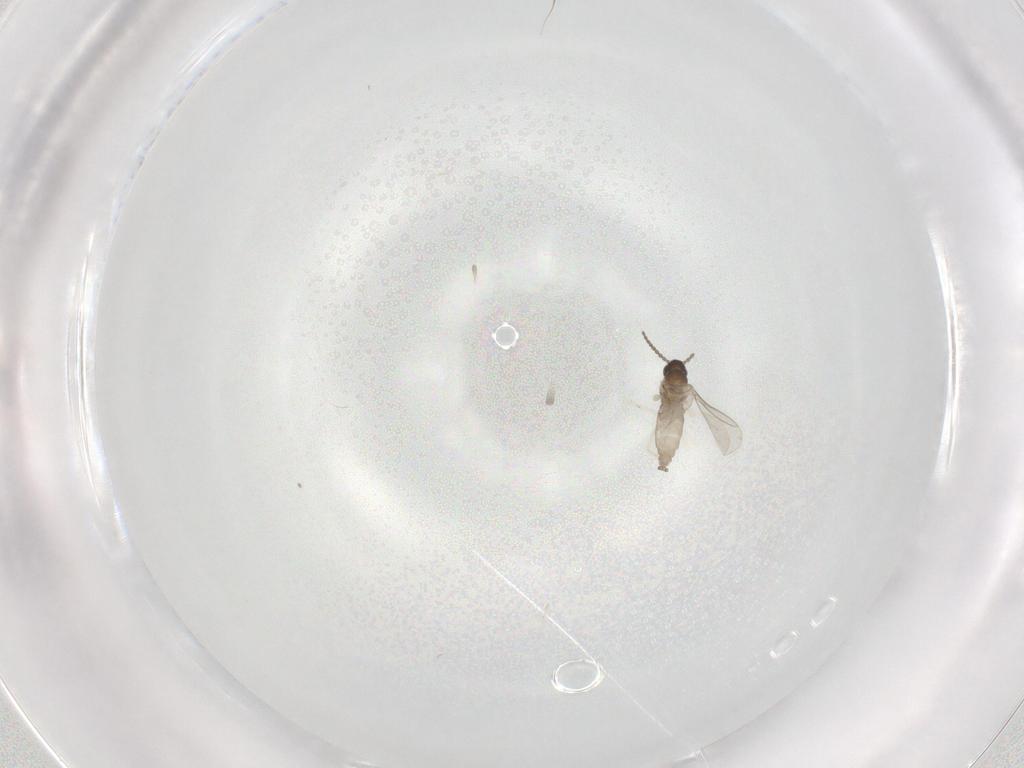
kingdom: Animalia
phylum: Arthropoda
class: Insecta
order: Diptera
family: Cecidomyiidae
